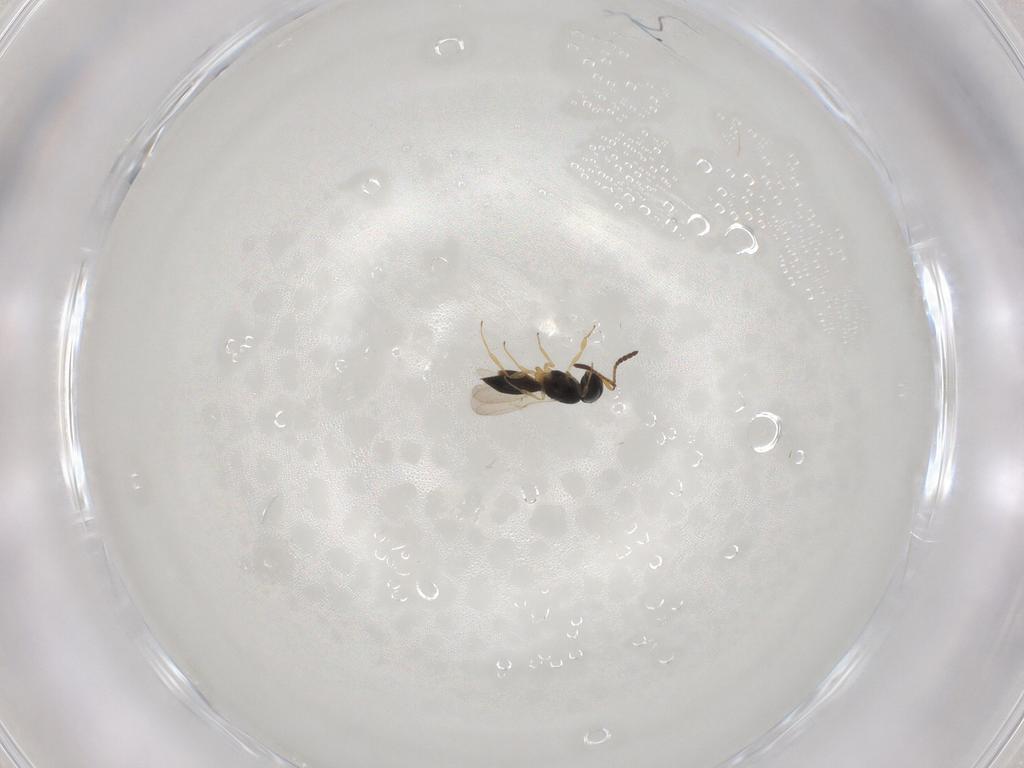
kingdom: Animalia
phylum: Arthropoda
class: Insecta
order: Hymenoptera
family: Scelionidae
